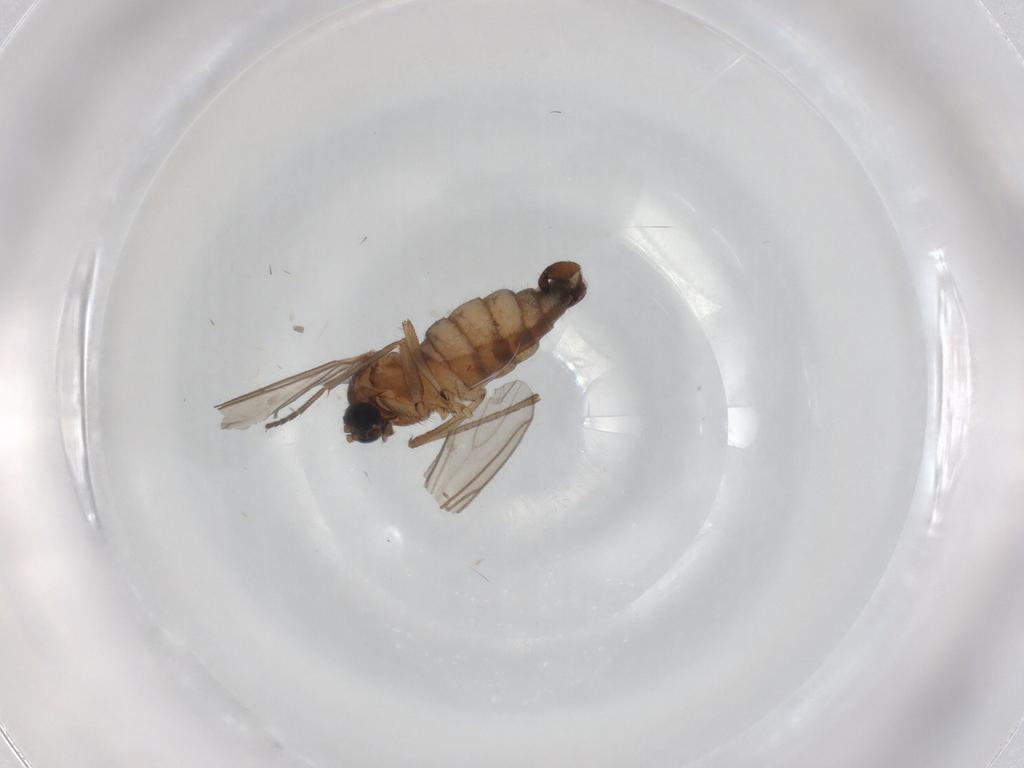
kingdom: Animalia
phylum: Arthropoda
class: Insecta
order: Diptera
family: Sciaridae
